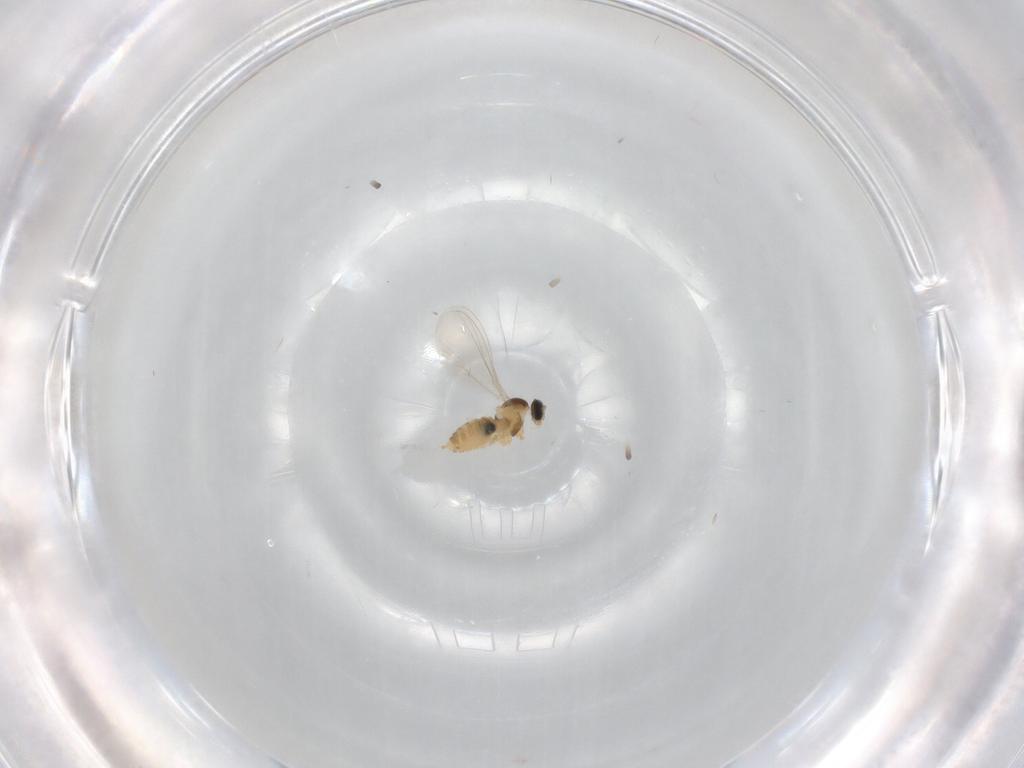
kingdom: Animalia
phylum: Arthropoda
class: Insecta
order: Diptera
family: Cecidomyiidae
